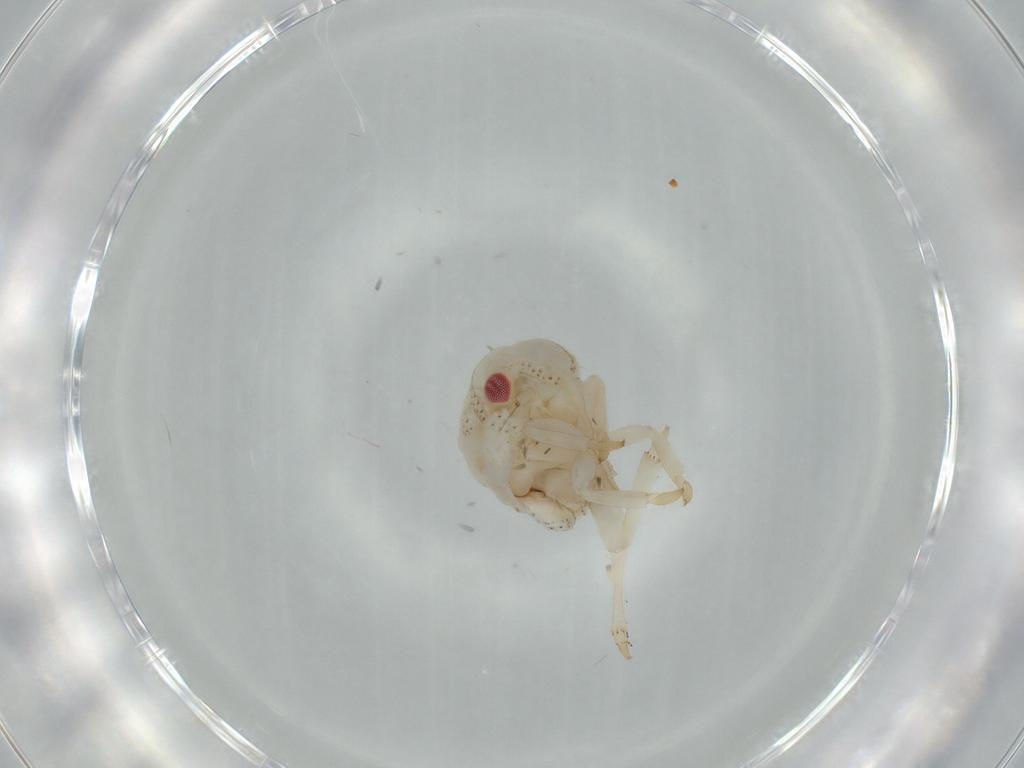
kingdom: Animalia
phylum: Arthropoda
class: Insecta
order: Hemiptera
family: Acanaloniidae
